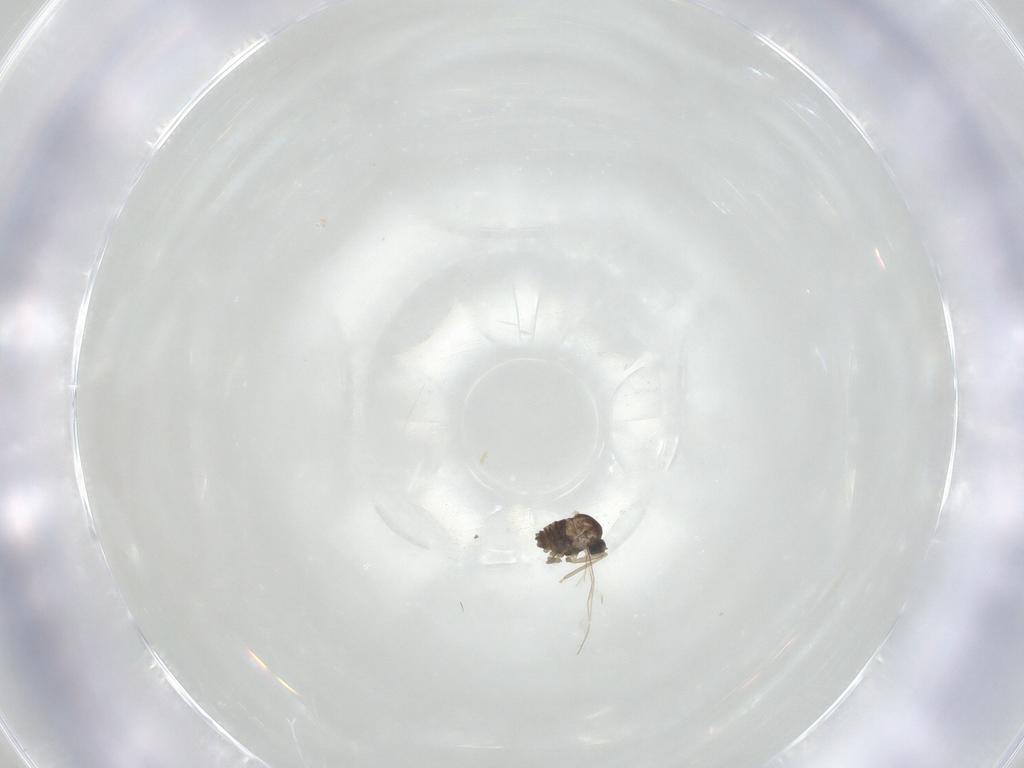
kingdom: Animalia
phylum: Arthropoda
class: Insecta
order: Diptera
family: Cecidomyiidae
